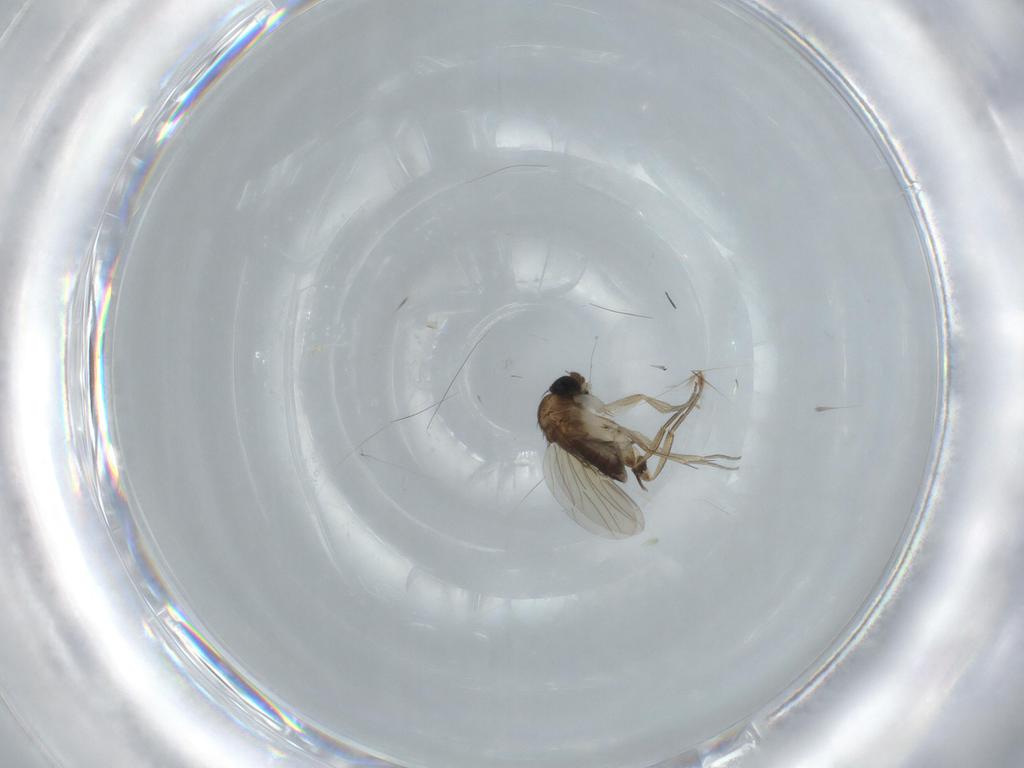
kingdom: Animalia
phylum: Arthropoda
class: Insecta
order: Diptera
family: Phoridae
